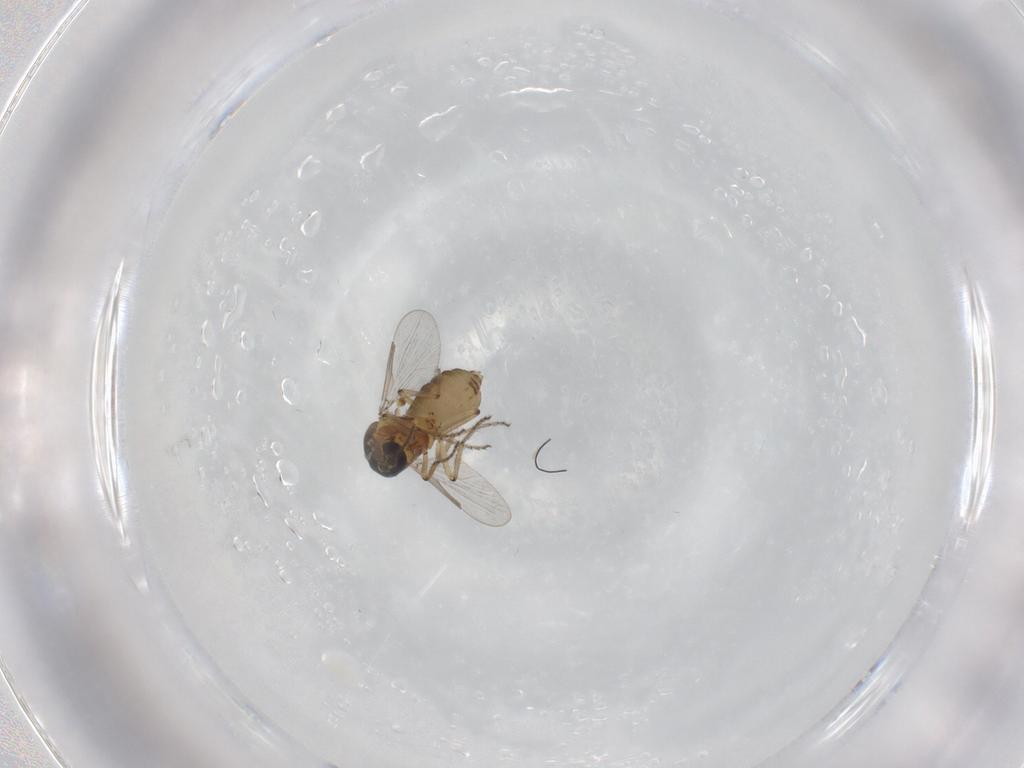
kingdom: Animalia
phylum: Arthropoda
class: Insecta
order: Diptera
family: Ceratopogonidae
